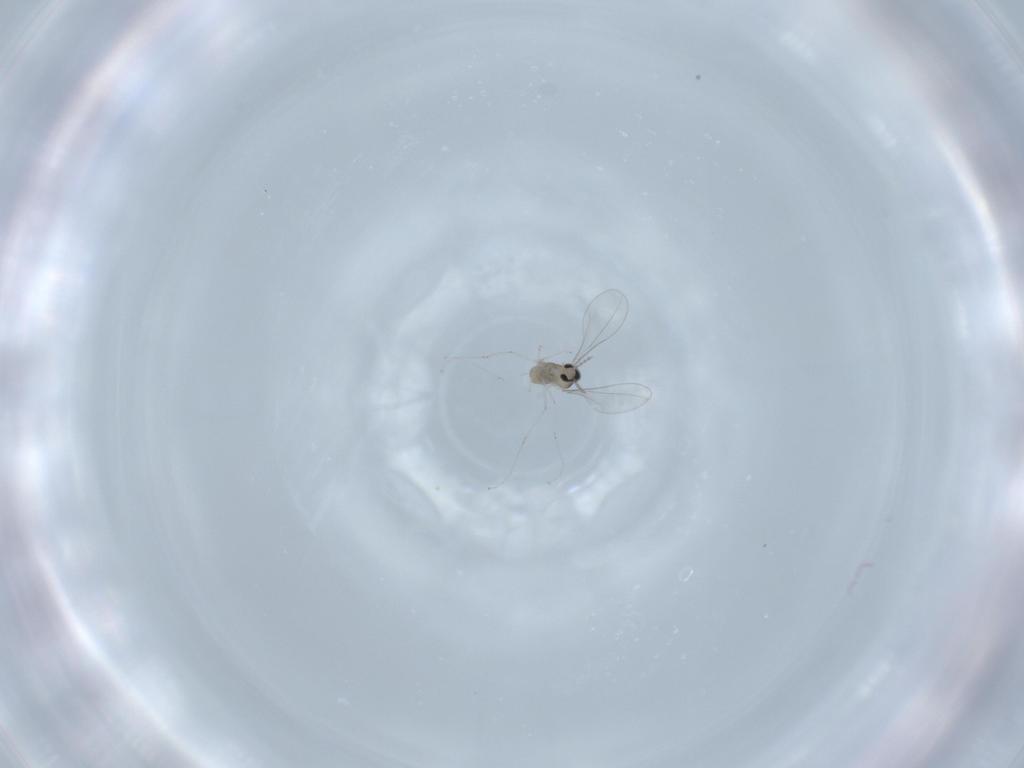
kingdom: Animalia
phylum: Arthropoda
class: Insecta
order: Diptera
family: Cecidomyiidae
